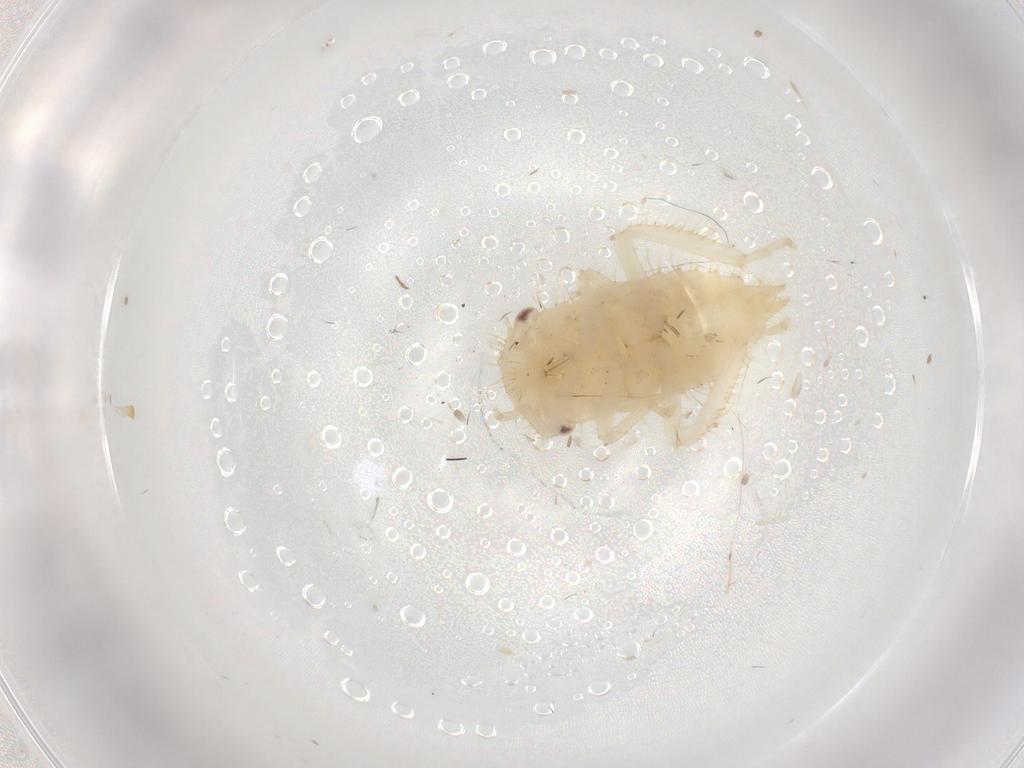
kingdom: Animalia
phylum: Arthropoda
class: Insecta
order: Hemiptera
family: Cicadellidae
